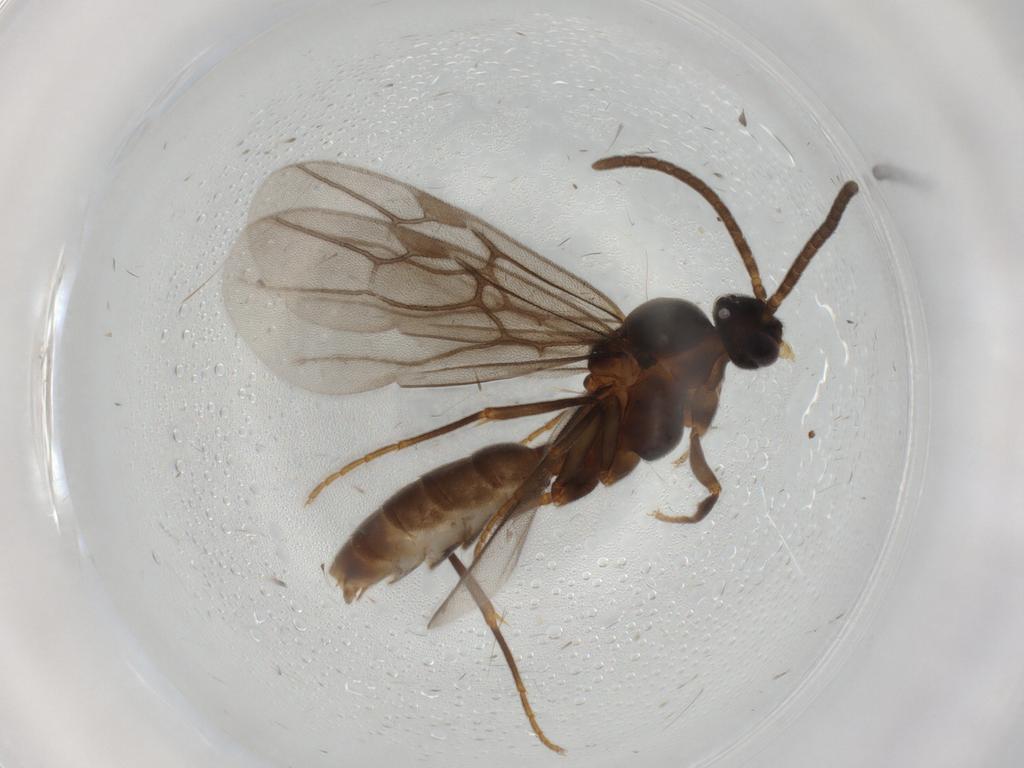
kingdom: Animalia
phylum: Arthropoda
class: Insecta
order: Hymenoptera
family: Formicidae
